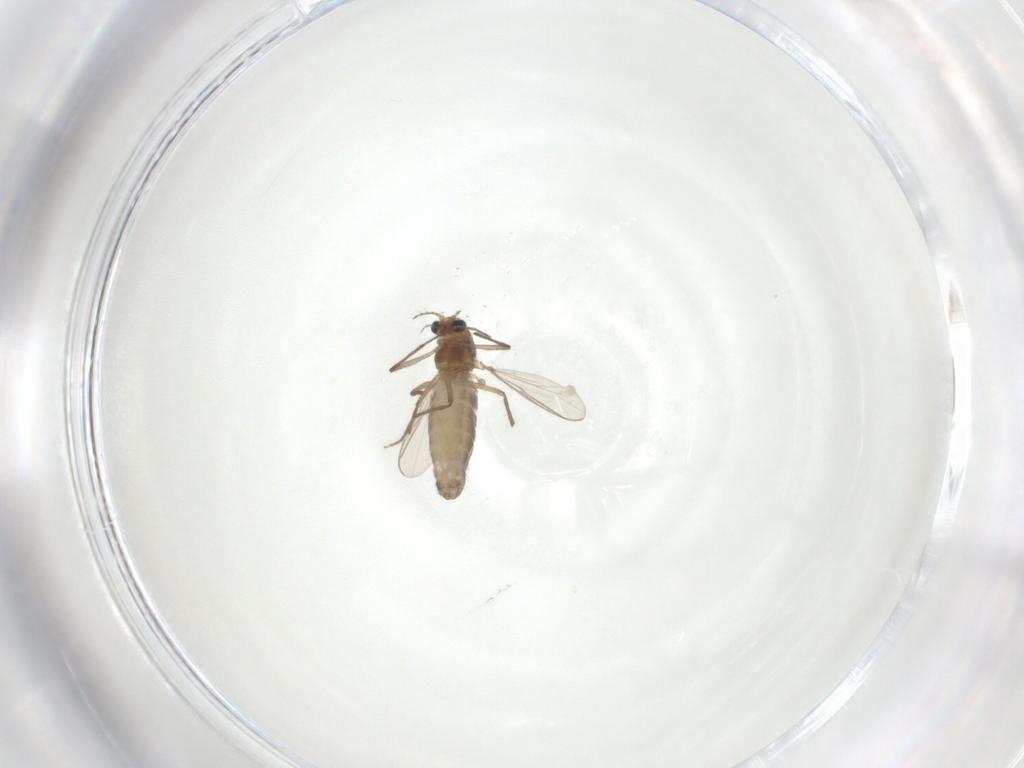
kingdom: Animalia
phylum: Arthropoda
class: Insecta
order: Diptera
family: Chironomidae
